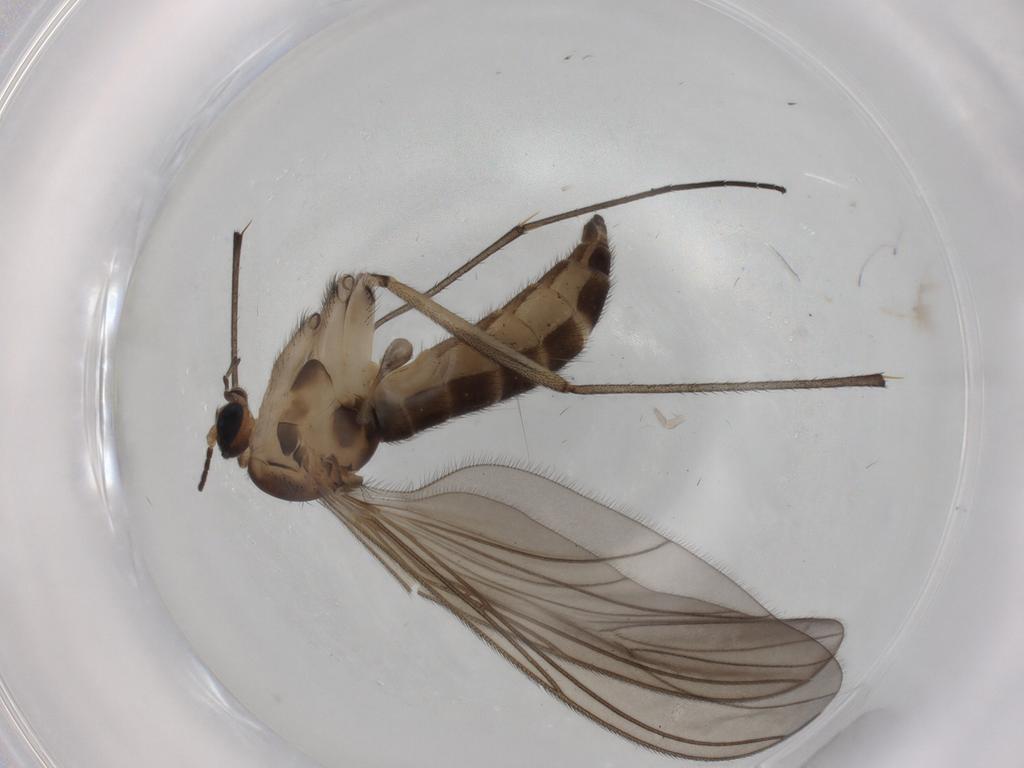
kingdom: Animalia
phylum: Arthropoda
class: Insecta
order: Diptera
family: Sciaridae
